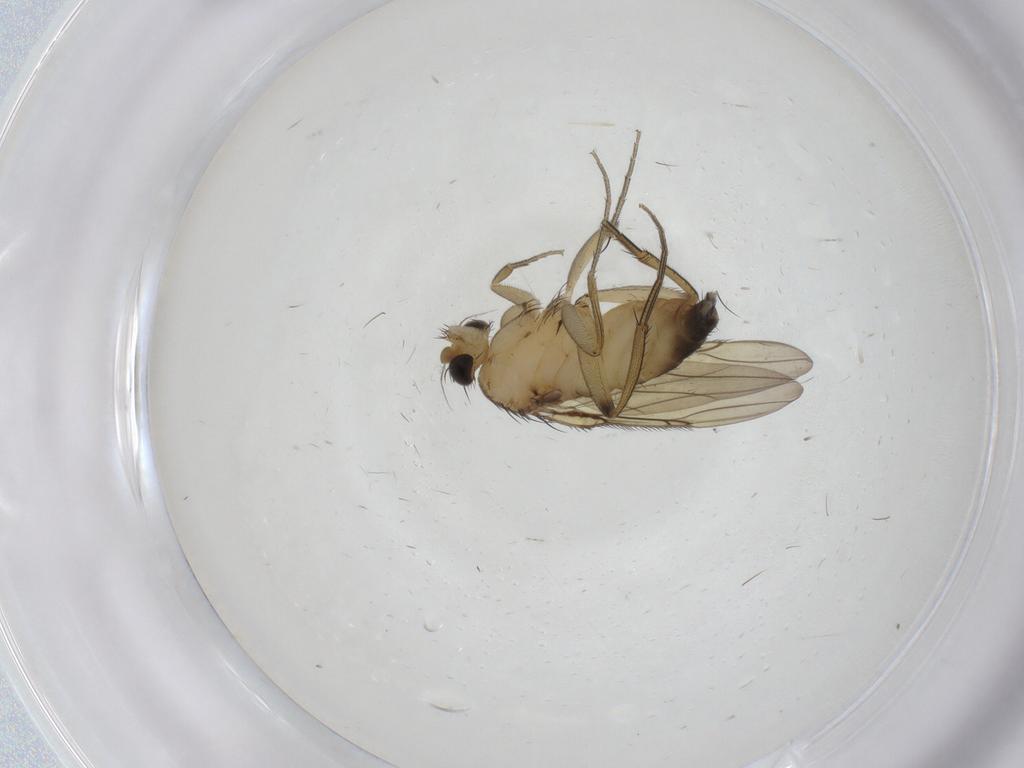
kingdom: Animalia
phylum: Arthropoda
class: Insecta
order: Diptera
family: Phoridae
